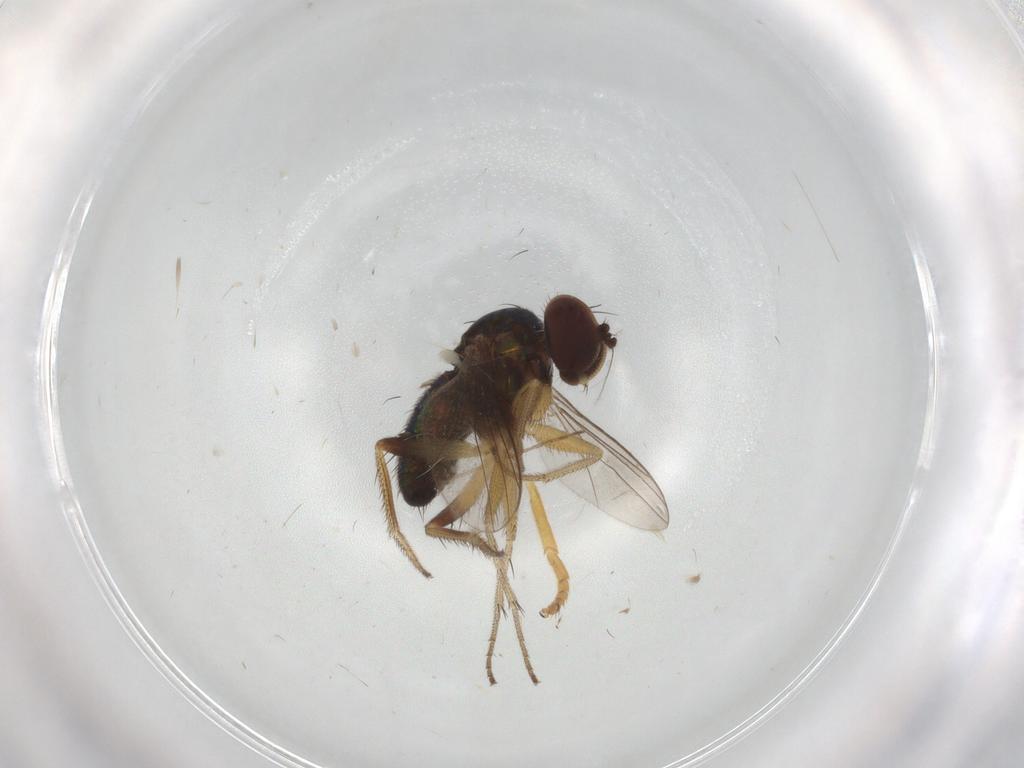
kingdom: Animalia
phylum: Arthropoda
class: Insecta
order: Diptera
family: Syrphidae
